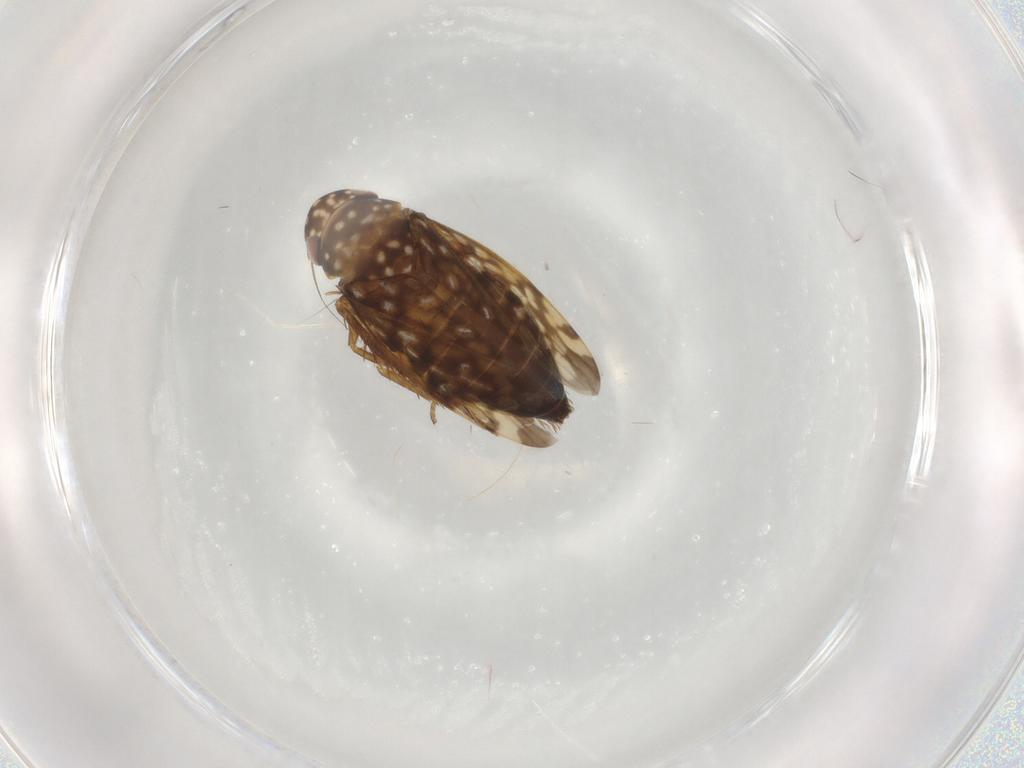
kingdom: Animalia
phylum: Arthropoda
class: Insecta
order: Hemiptera
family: Cicadellidae
